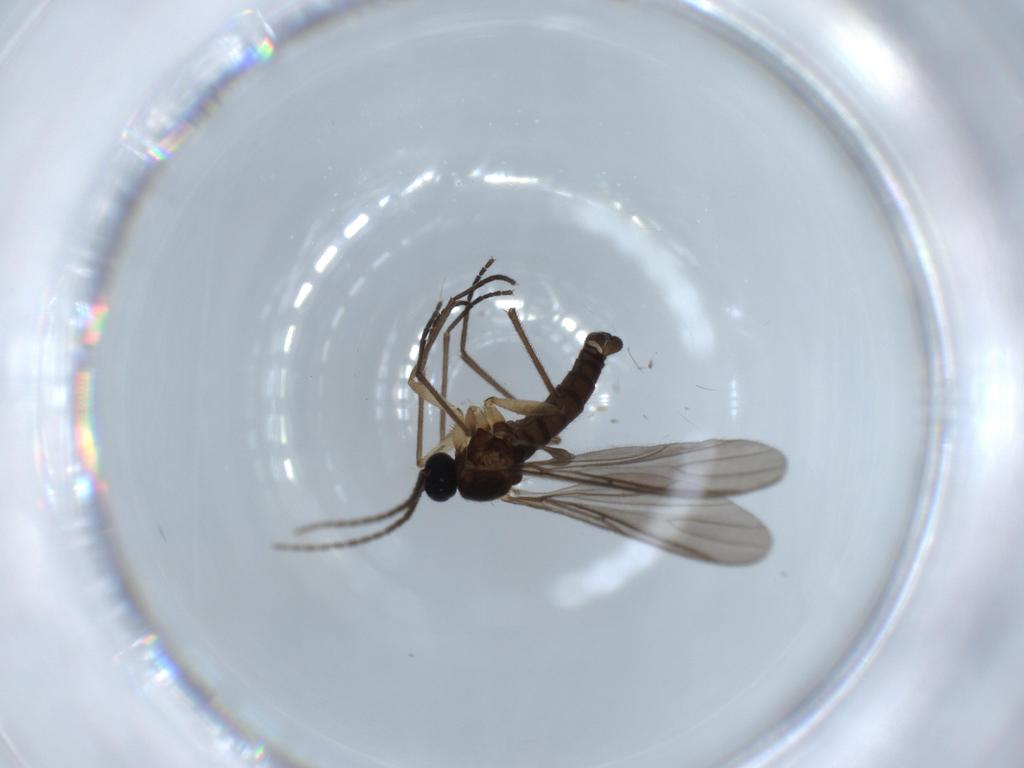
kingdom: Animalia
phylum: Arthropoda
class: Insecta
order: Diptera
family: Sciaridae
